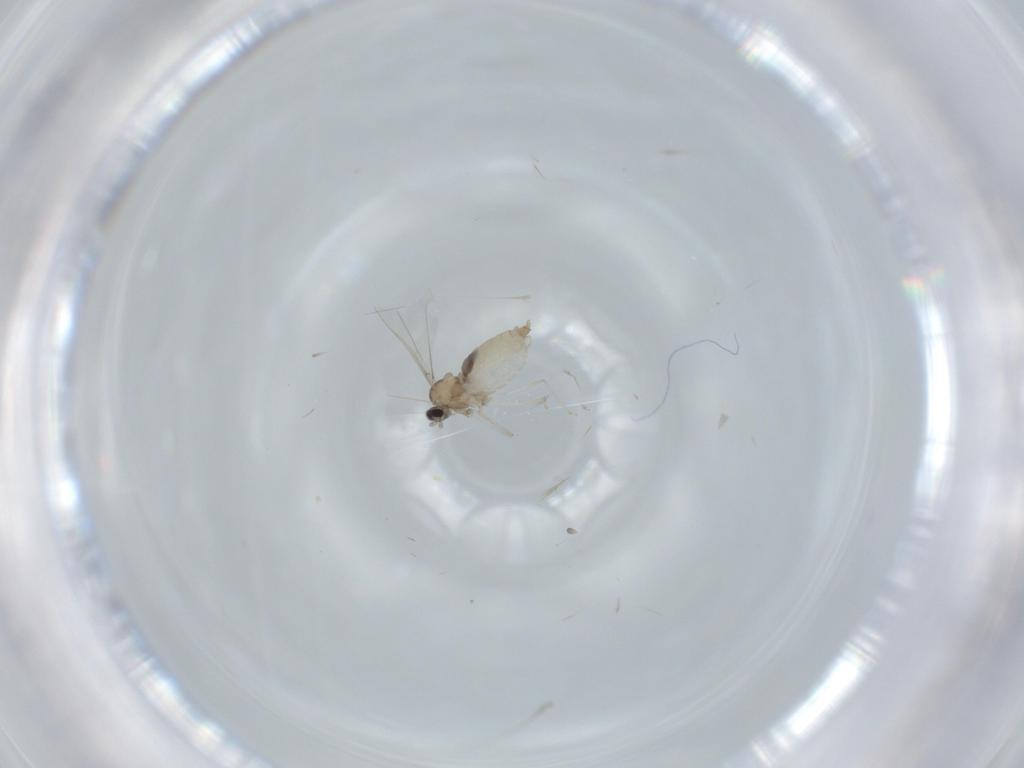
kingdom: Animalia
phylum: Arthropoda
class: Insecta
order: Diptera
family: Cecidomyiidae
